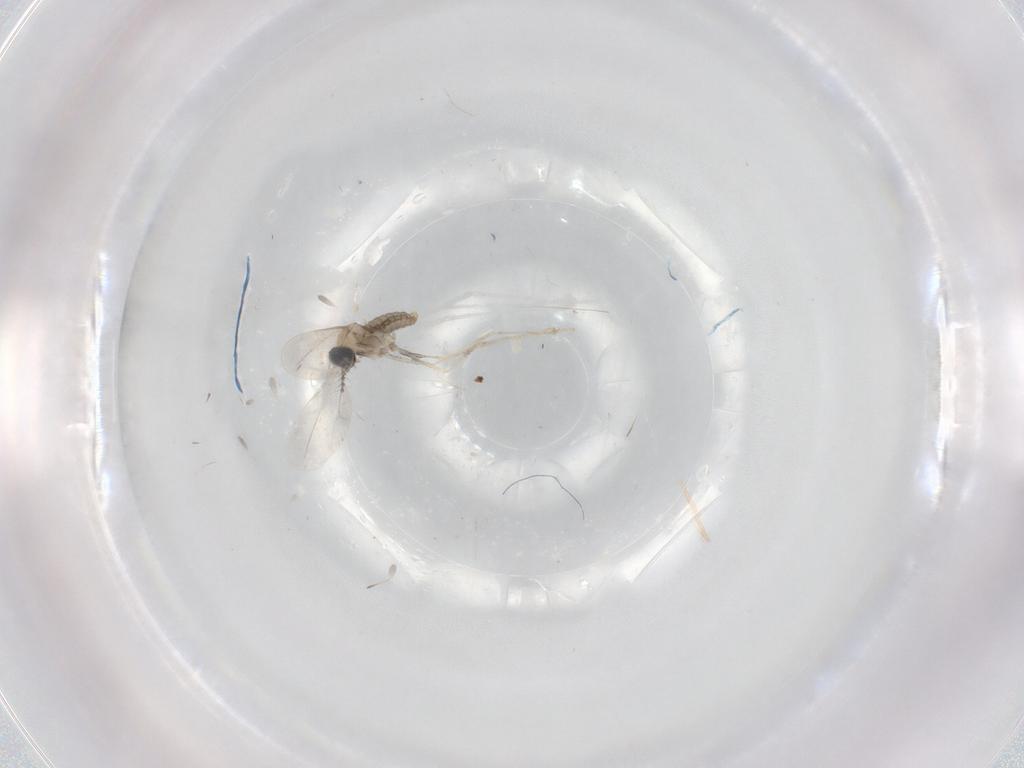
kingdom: Animalia
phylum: Arthropoda
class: Insecta
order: Diptera
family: Cecidomyiidae
